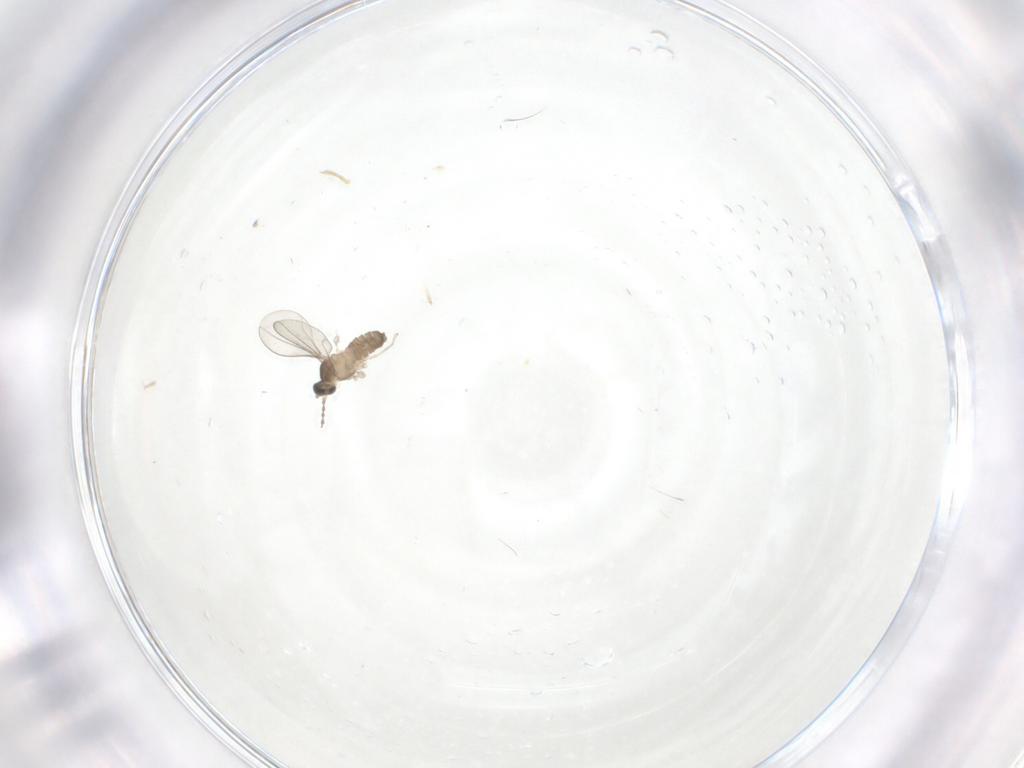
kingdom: Animalia
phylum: Arthropoda
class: Insecta
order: Diptera
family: Cecidomyiidae
